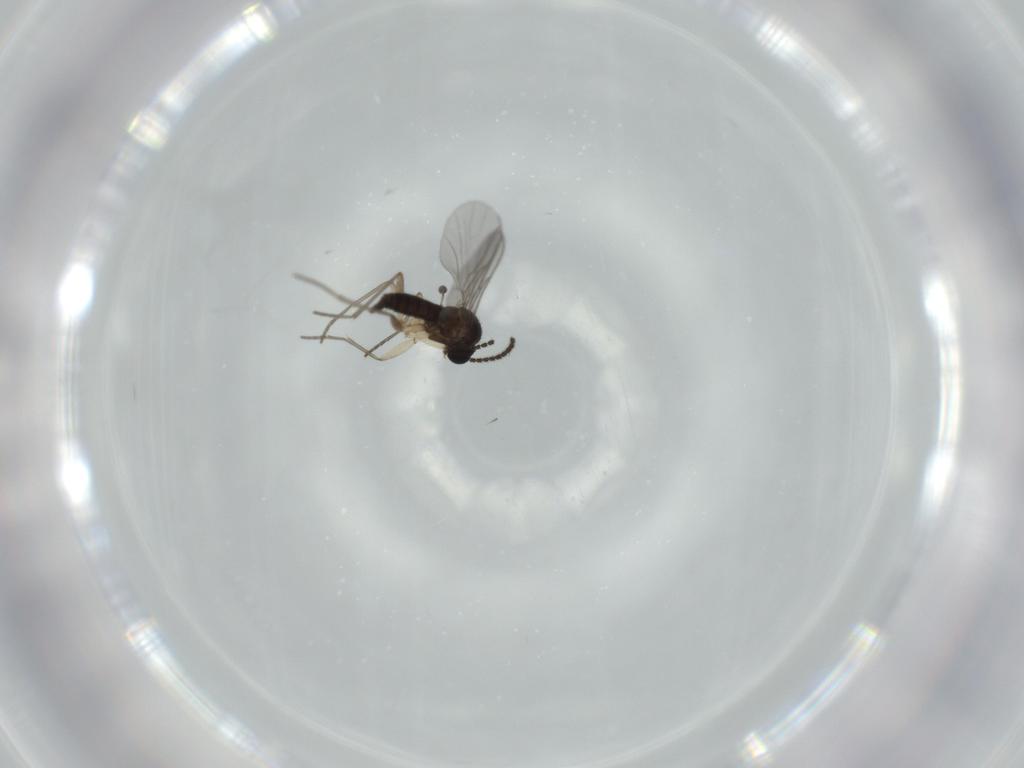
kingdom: Animalia
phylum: Arthropoda
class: Insecta
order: Diptera
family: Sciaridae
